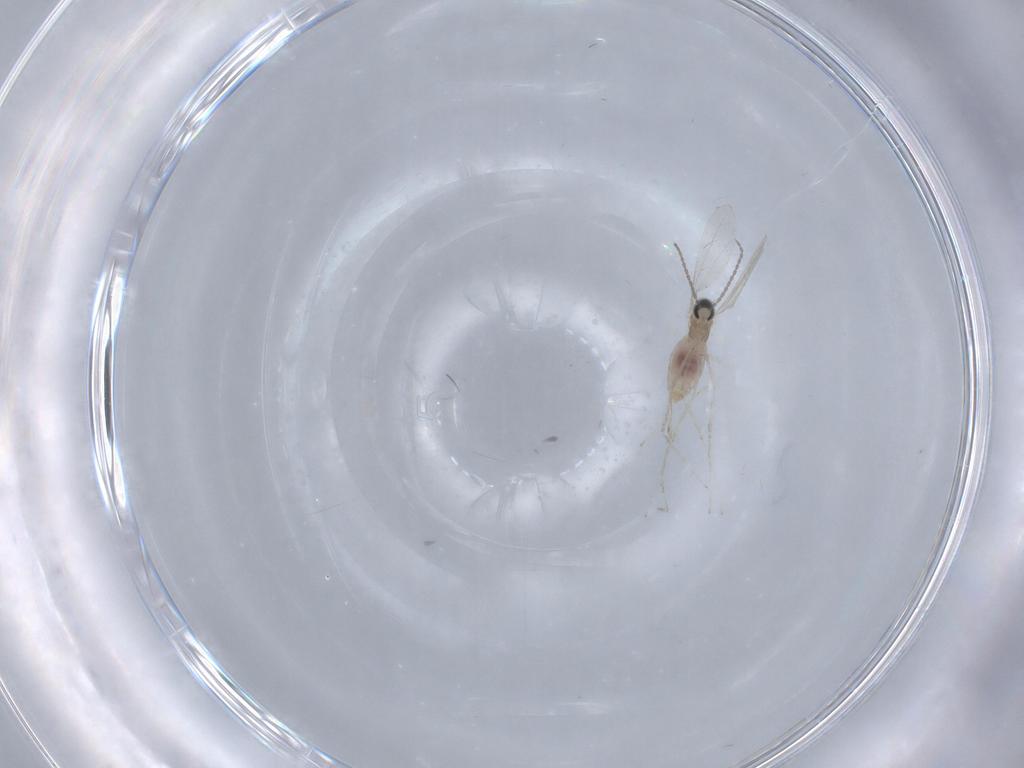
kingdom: Animalia
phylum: Arthropoda
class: Insecta
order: Diptera
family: Chironomidae
